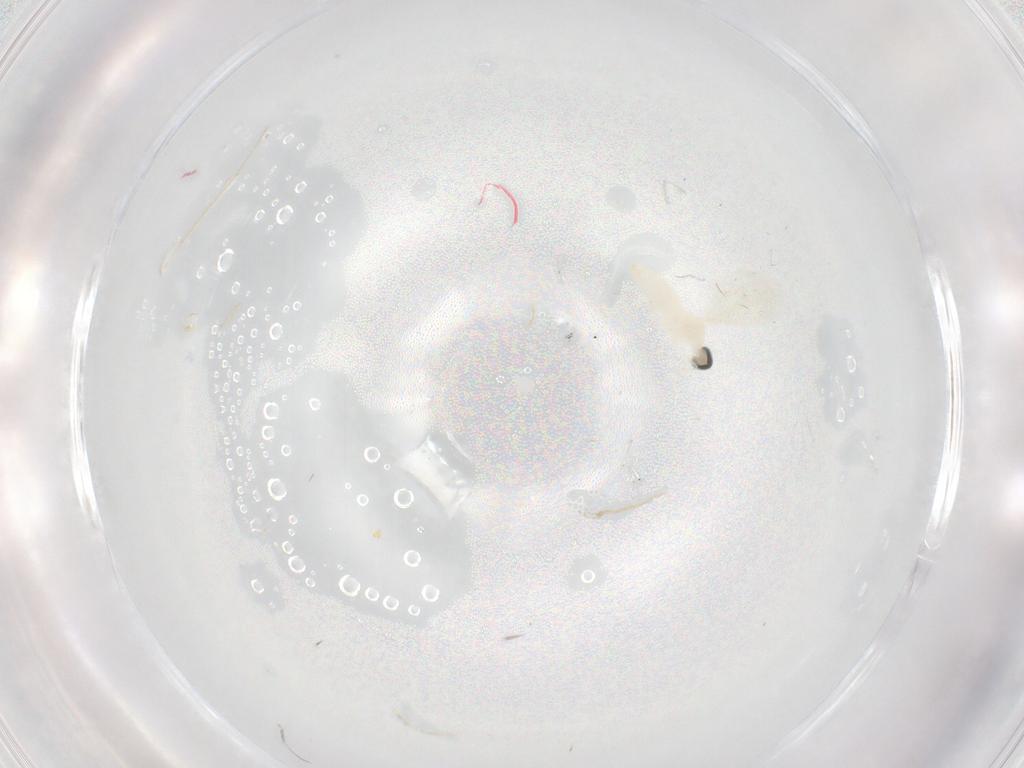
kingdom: Animalia
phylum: Arthropoda
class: Insecta
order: Diptera
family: Cecidomyiidae
